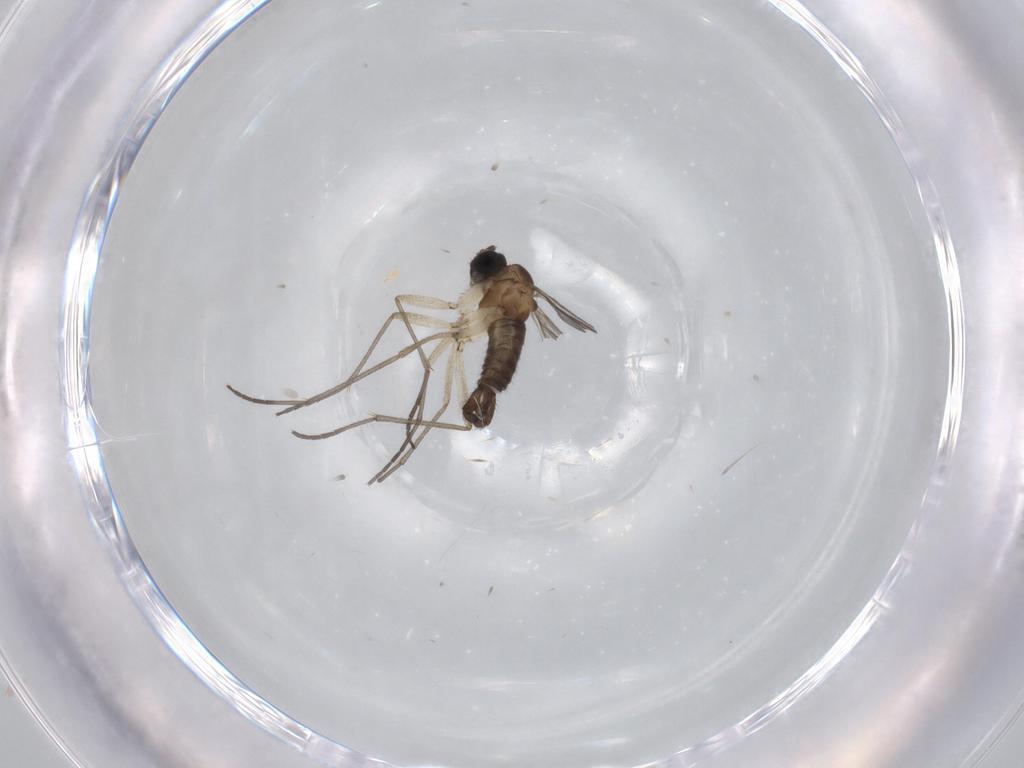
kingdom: Animalia
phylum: Arthropoda
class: Insecta
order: Diptera
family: Sciaridae
